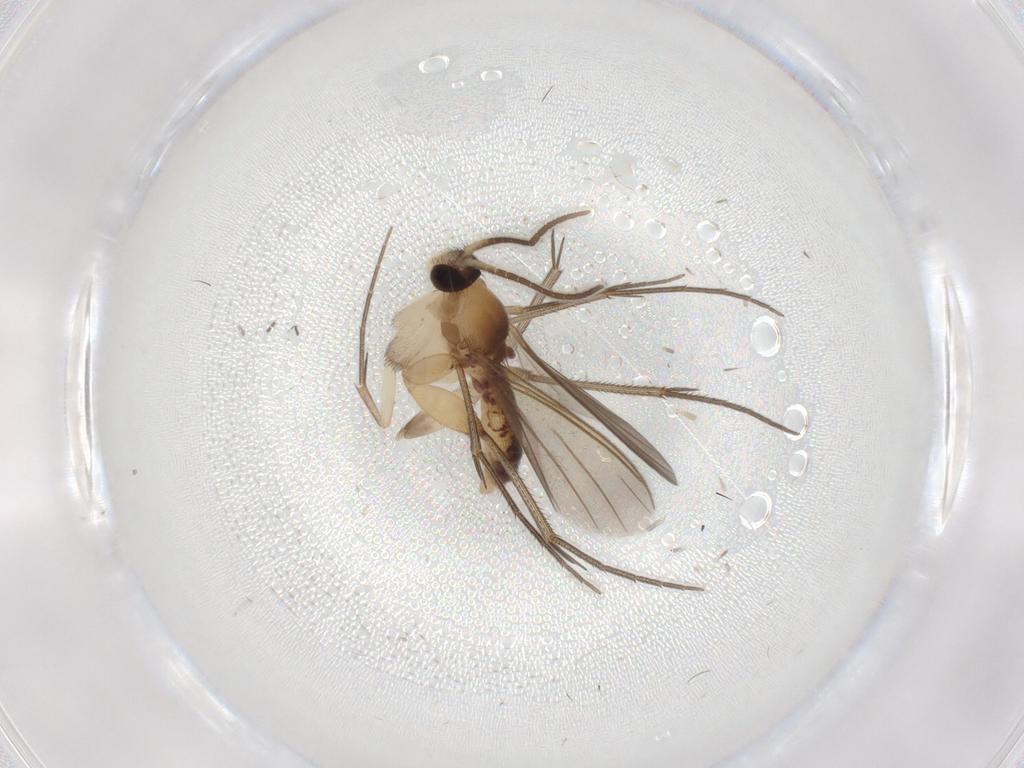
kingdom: Animalia
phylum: Arthropoda
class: Insecta
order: Diptera
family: Mycetophilidae
